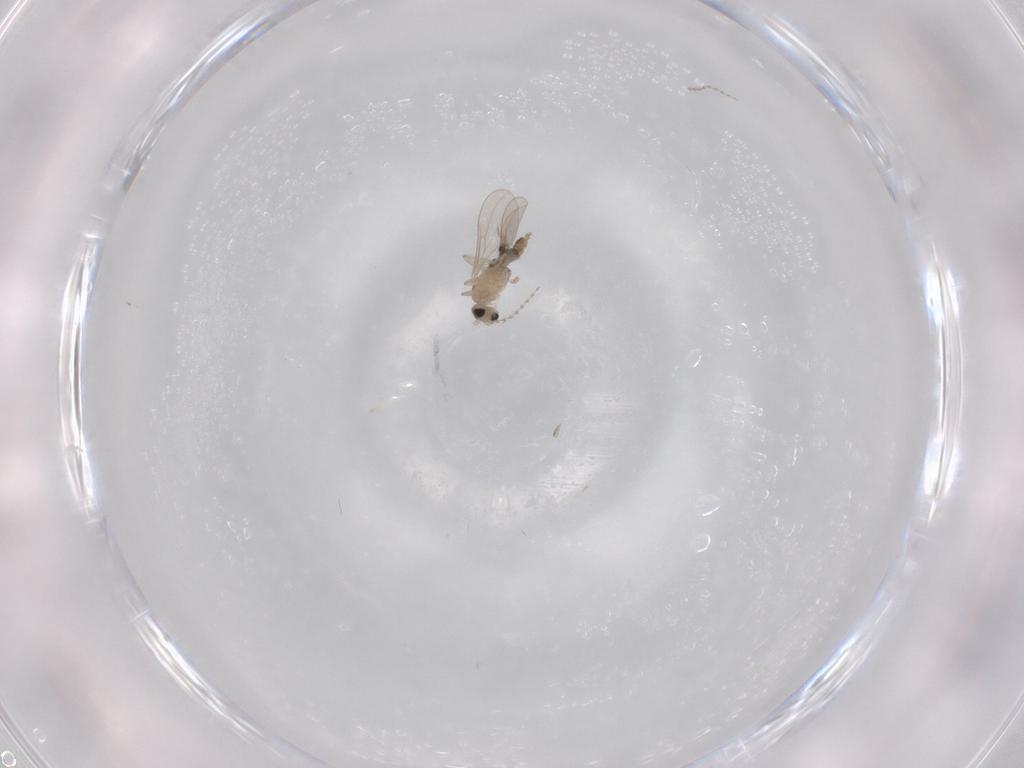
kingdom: Animalia
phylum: Arthropoda
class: Insecta
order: Diptera
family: Cecidomyiidae
